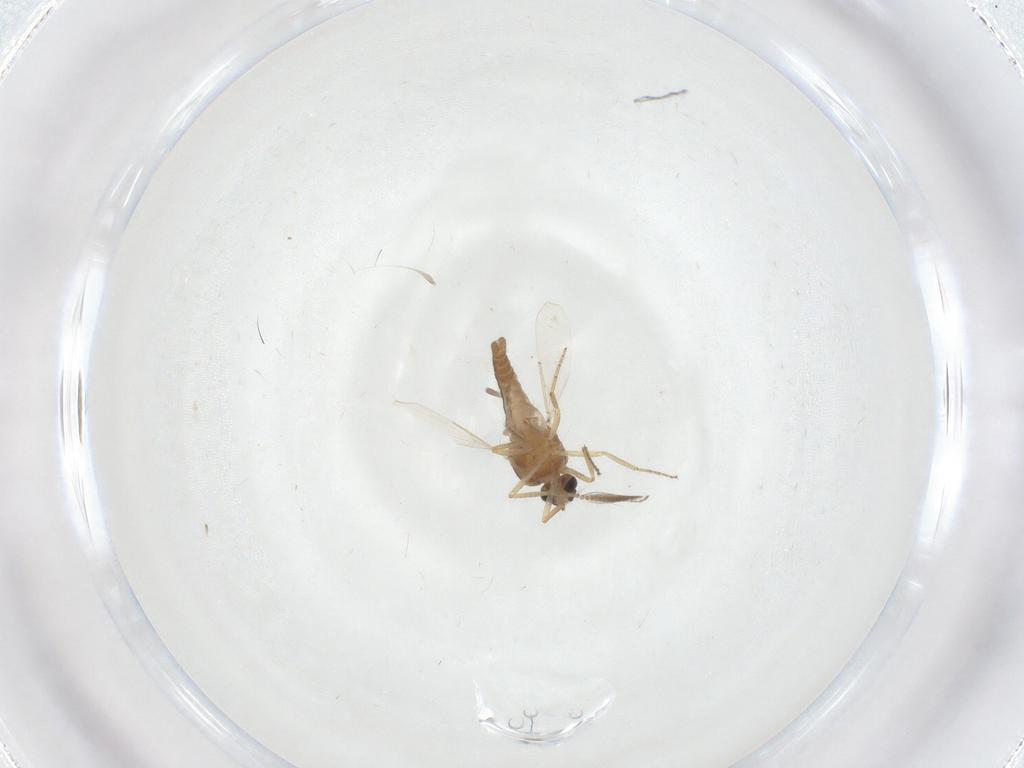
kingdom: Animalia
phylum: Arthropoda
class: Insecta
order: Diptera
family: Ceratopogonidae
